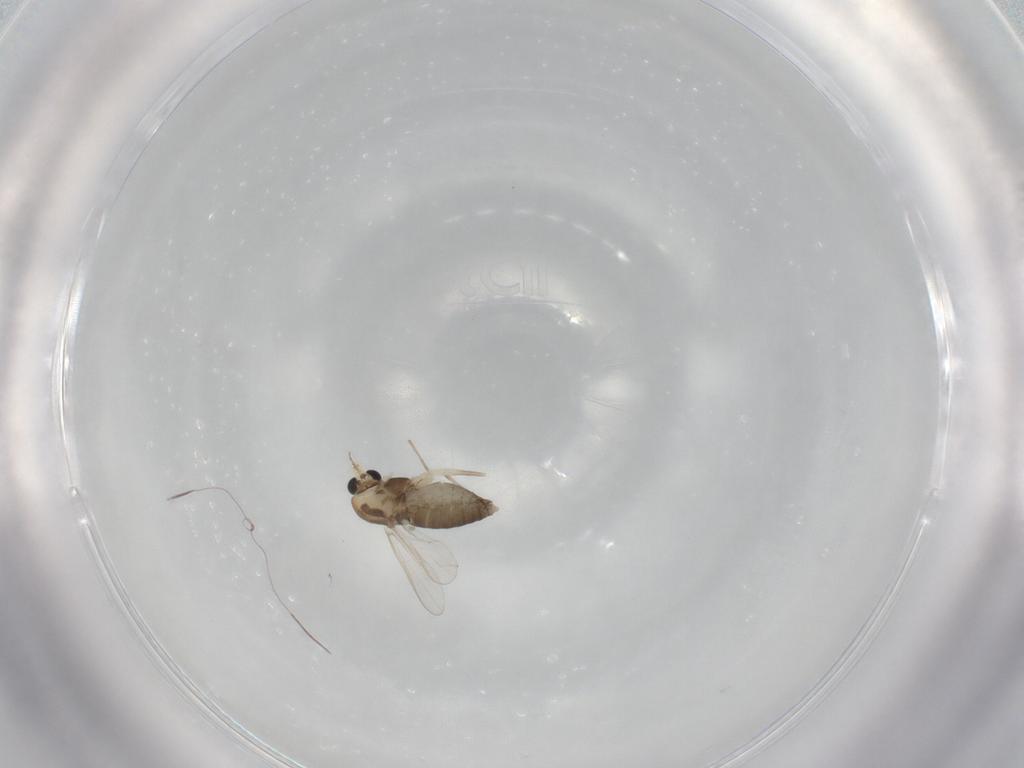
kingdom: Animalia
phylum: Arthropoda
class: Insecta
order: Diptera
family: Chironomidae
